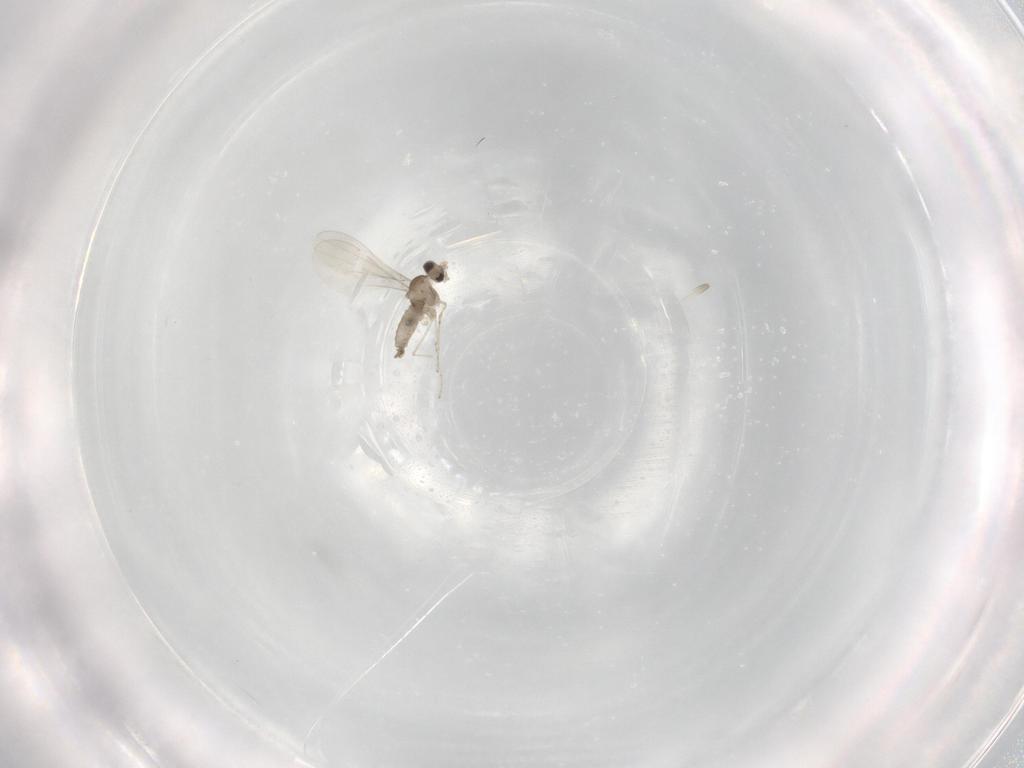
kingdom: Animalia
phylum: Arthropoda
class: Insecta
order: Diptera
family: Cecidomyiidae
